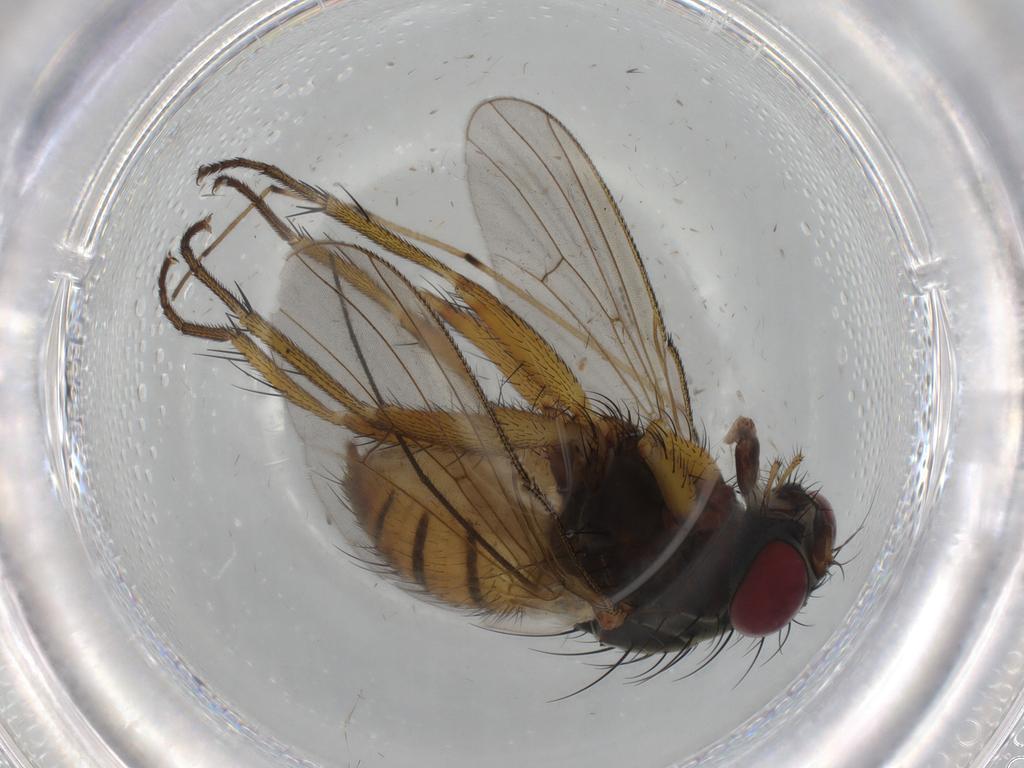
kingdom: Animalia
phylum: Arthropoda
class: Insecta
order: Diptera
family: Muscidae
